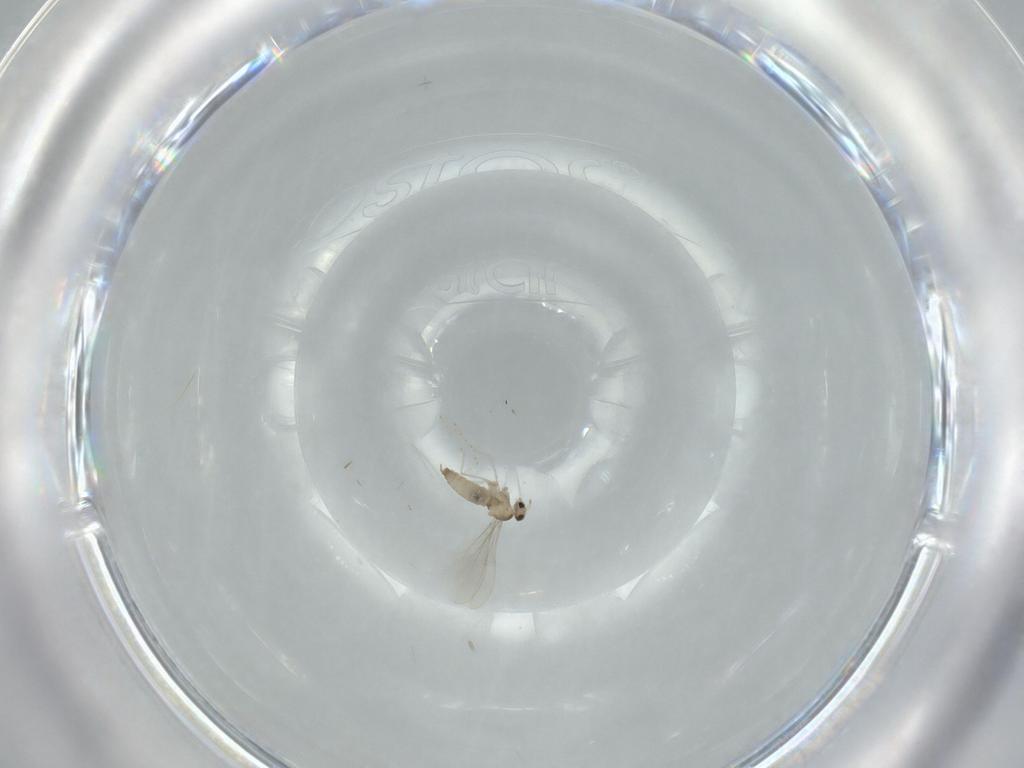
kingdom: Animalia
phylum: Arthropoda
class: Insecta
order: Diptera
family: Cecidomyiidae
